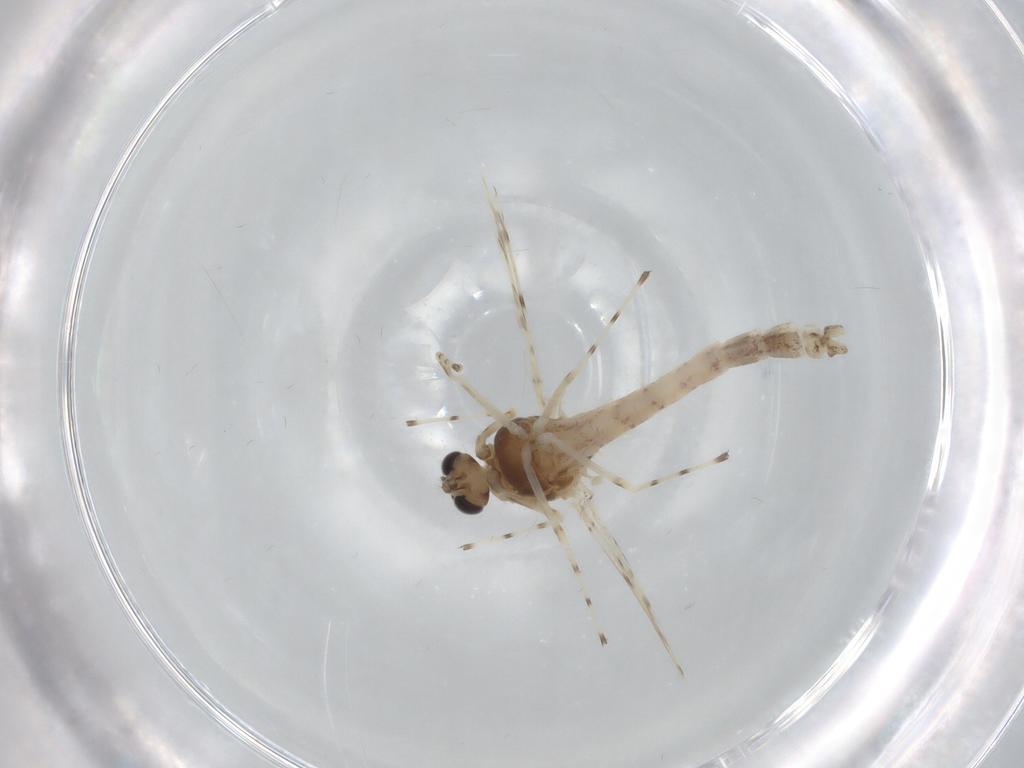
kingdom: Animalia
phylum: Arthropoda
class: Insecta
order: Diptera
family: Chironomidae
